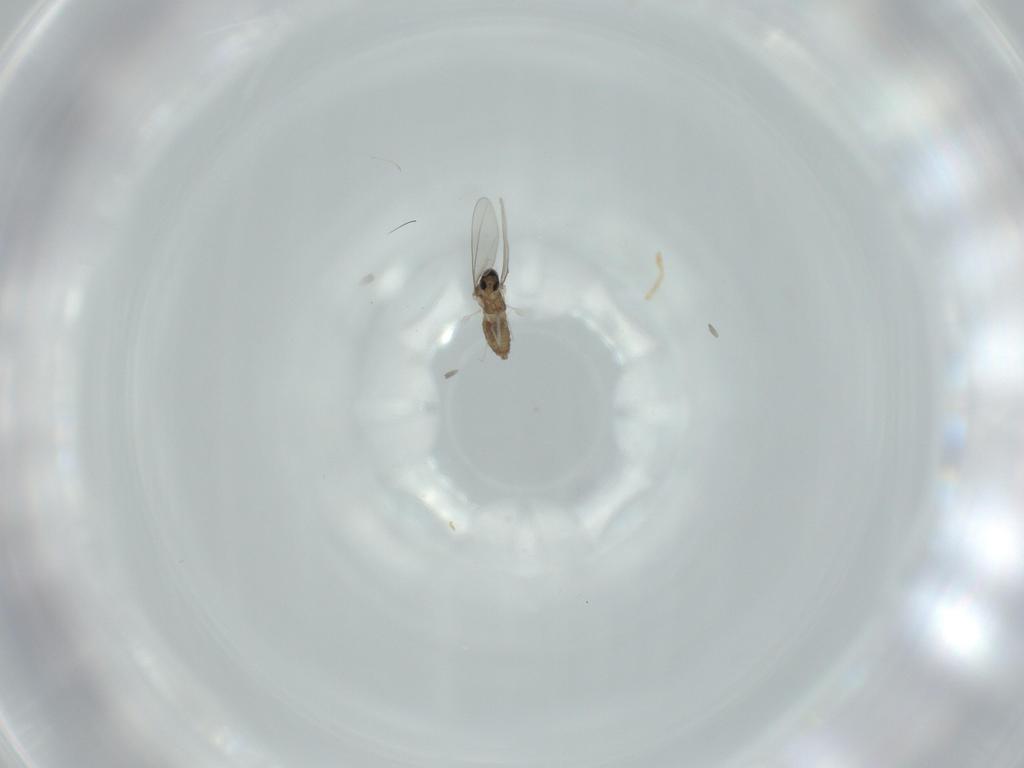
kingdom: Animalia
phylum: Arthropoda
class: Insecta
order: Diptera
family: Cecidomyiidae
